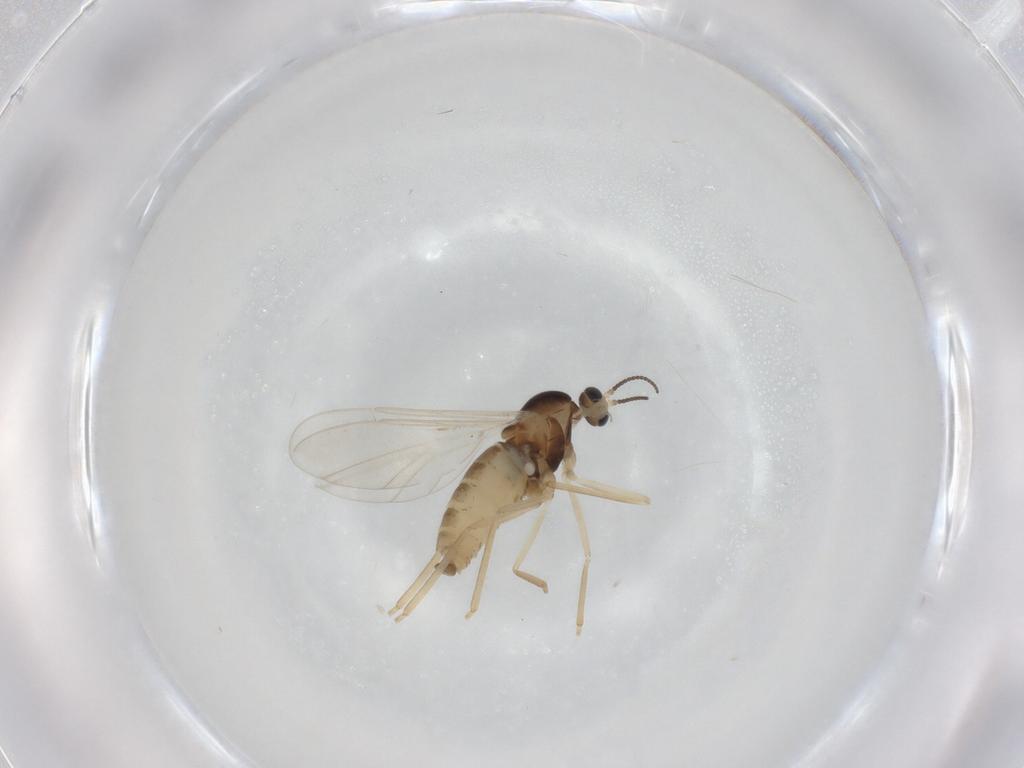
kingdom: Animalia
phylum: Arthropoda
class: Insecta
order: Diptera
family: Cecidomyiidae
